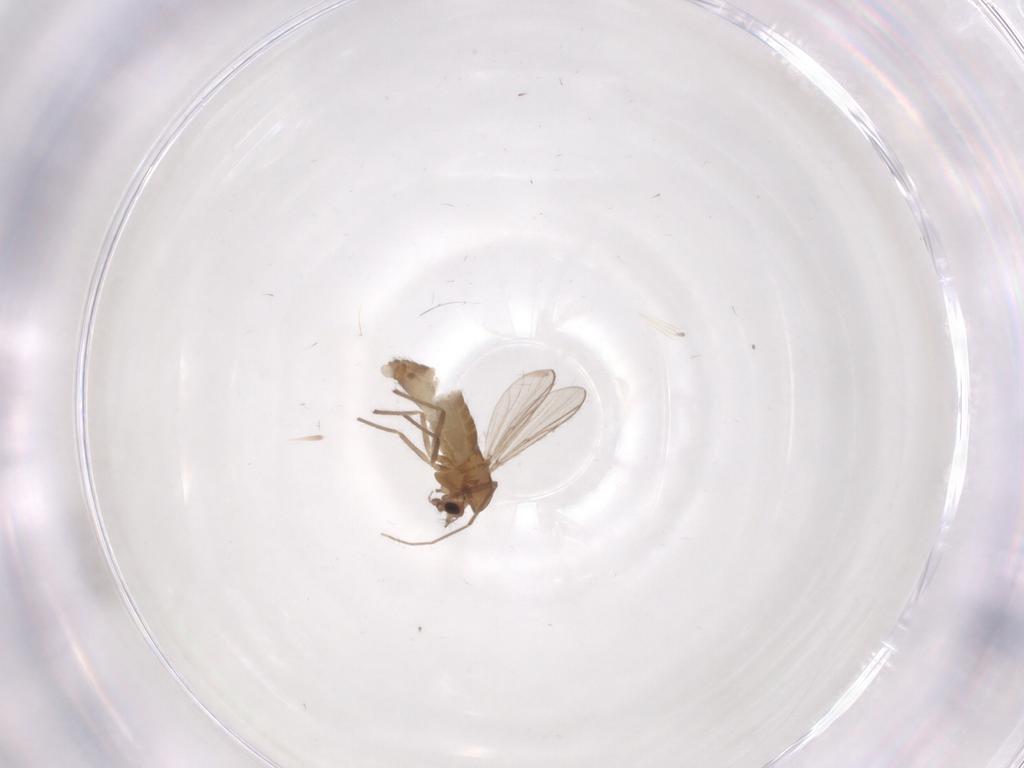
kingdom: Animalia
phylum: Arthropoda
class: Insecta
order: Diptera
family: Chironomidae
